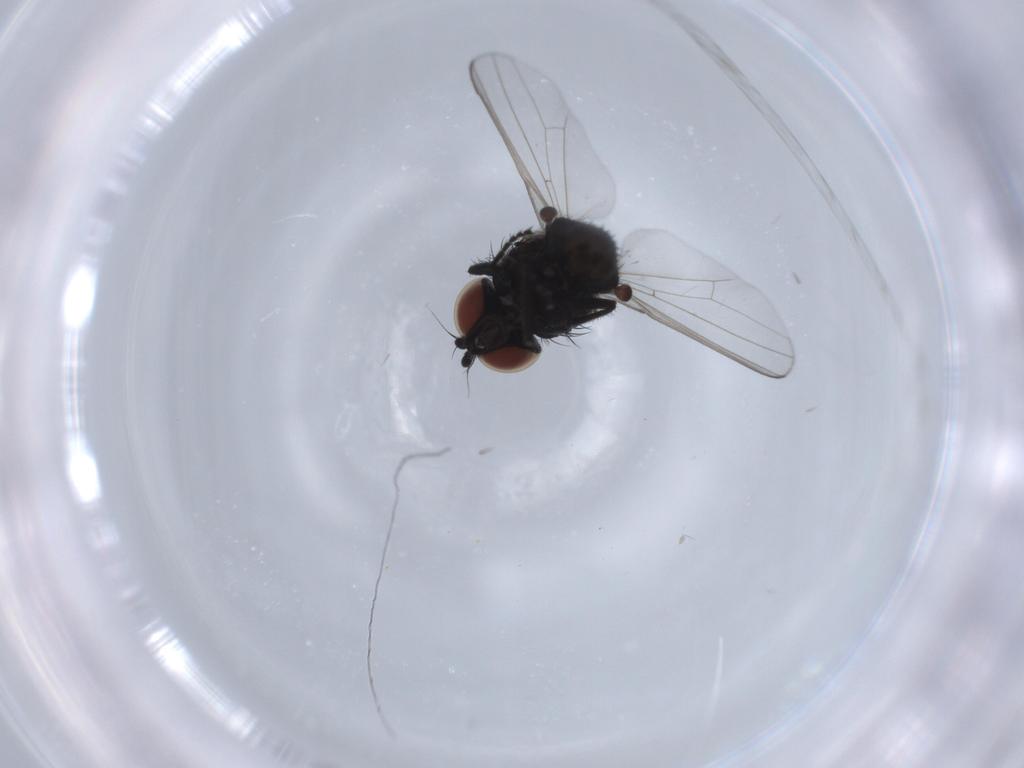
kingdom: Animalia
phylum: Arthropoda
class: Insecta
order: Diptera
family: Milichiidae
